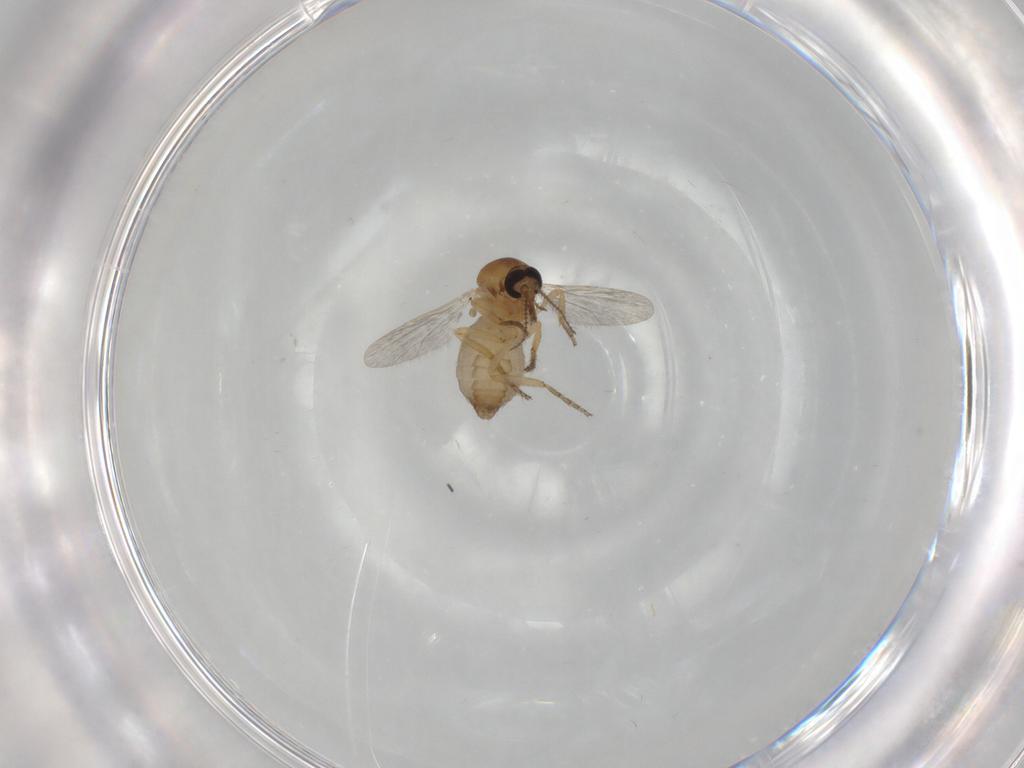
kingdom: Animalia
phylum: Arthropoda
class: Insecta
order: Diptera
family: Ceratopogonidae
